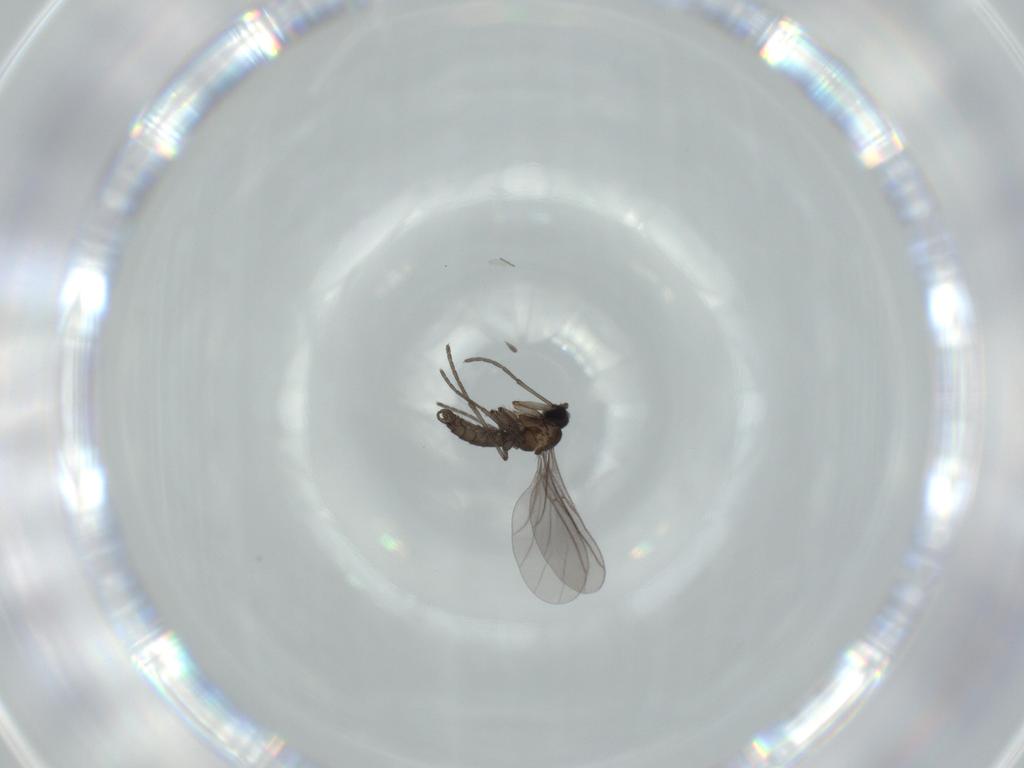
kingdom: Animalia
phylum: Arthropoda
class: Insecta
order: Diptera
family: Sciaridae
